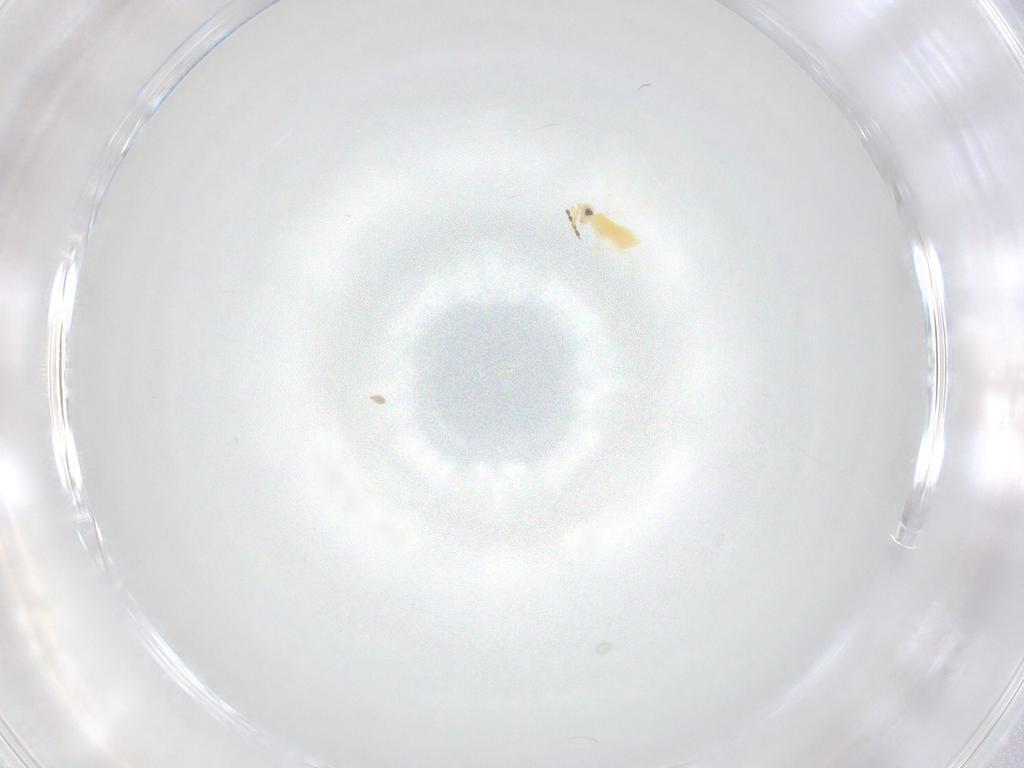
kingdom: Animalia
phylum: Arthropoda
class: Insecta
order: Hymenoptera
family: Aphelinidae
